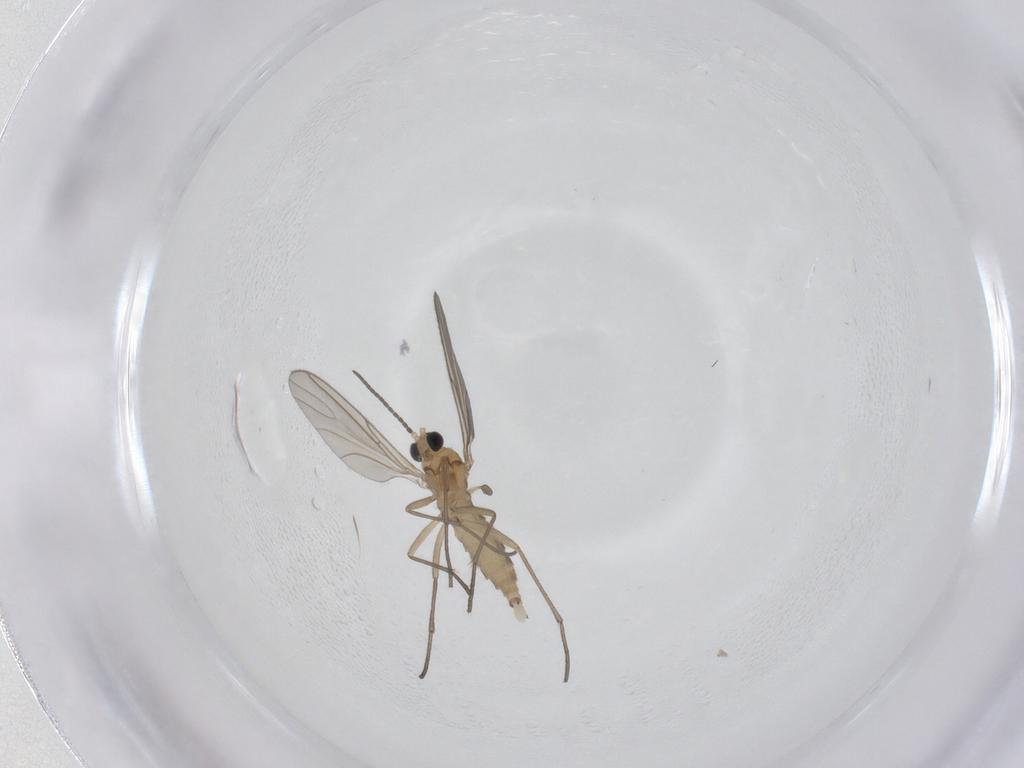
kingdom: Animalia
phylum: Arthropoda
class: Insecta
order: Diptera
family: Sciaridae
